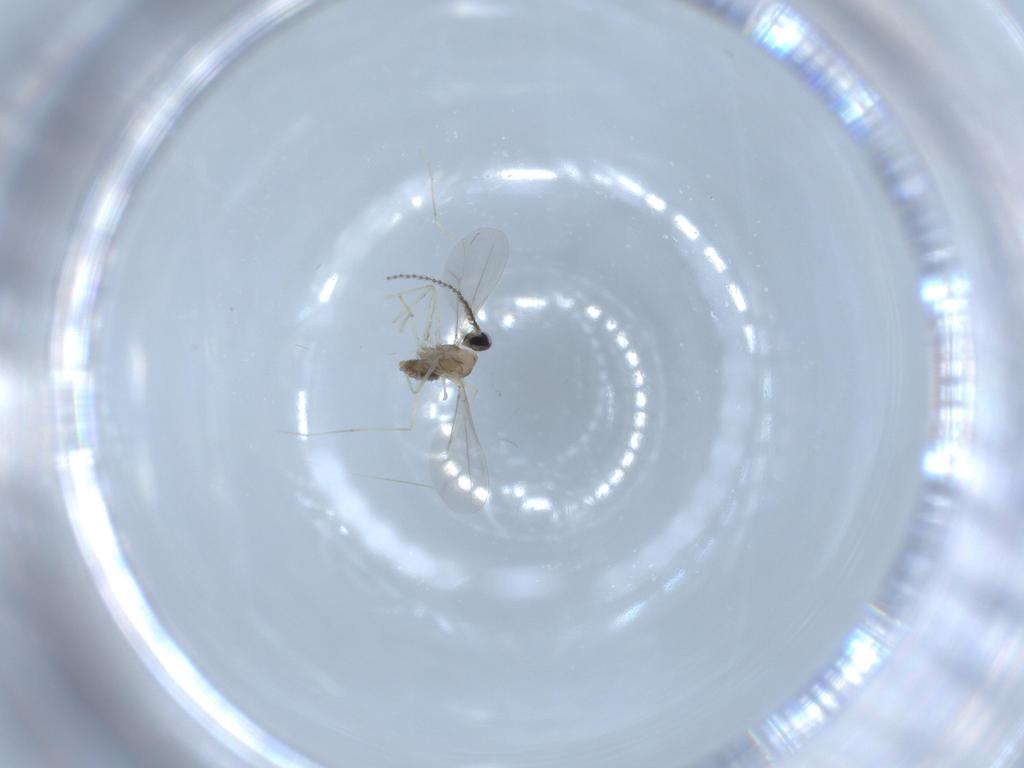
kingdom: Animalia
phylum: Arthropoda
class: Insecta
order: Diptera
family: Cecidomyiidae
